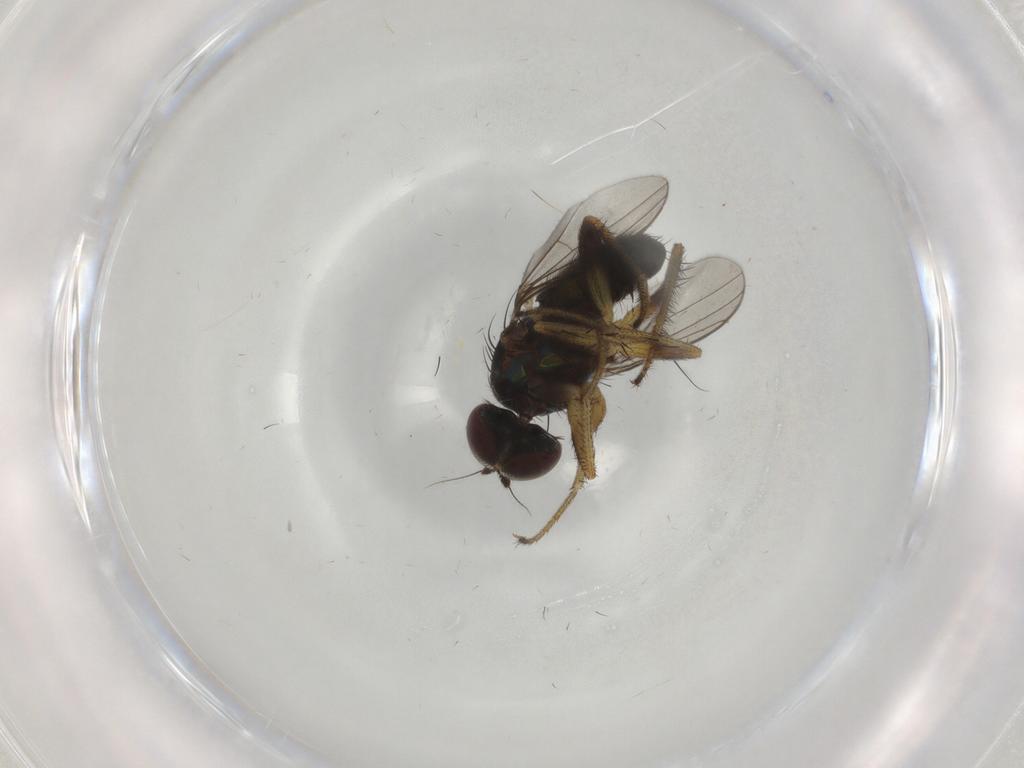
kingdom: Animalia
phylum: Arthropoda
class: Insecta
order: Diptera
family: Dolichopodidae
